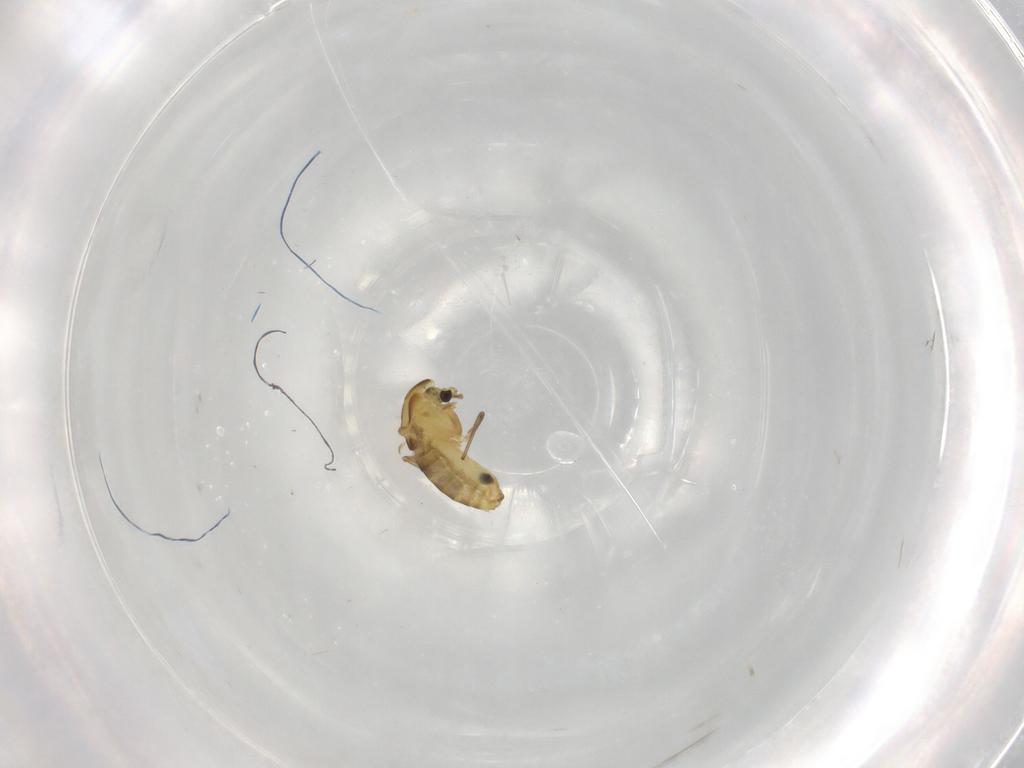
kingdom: Animalia
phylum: Arthropoda
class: Insecta
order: Diptera
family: Chironomidae
